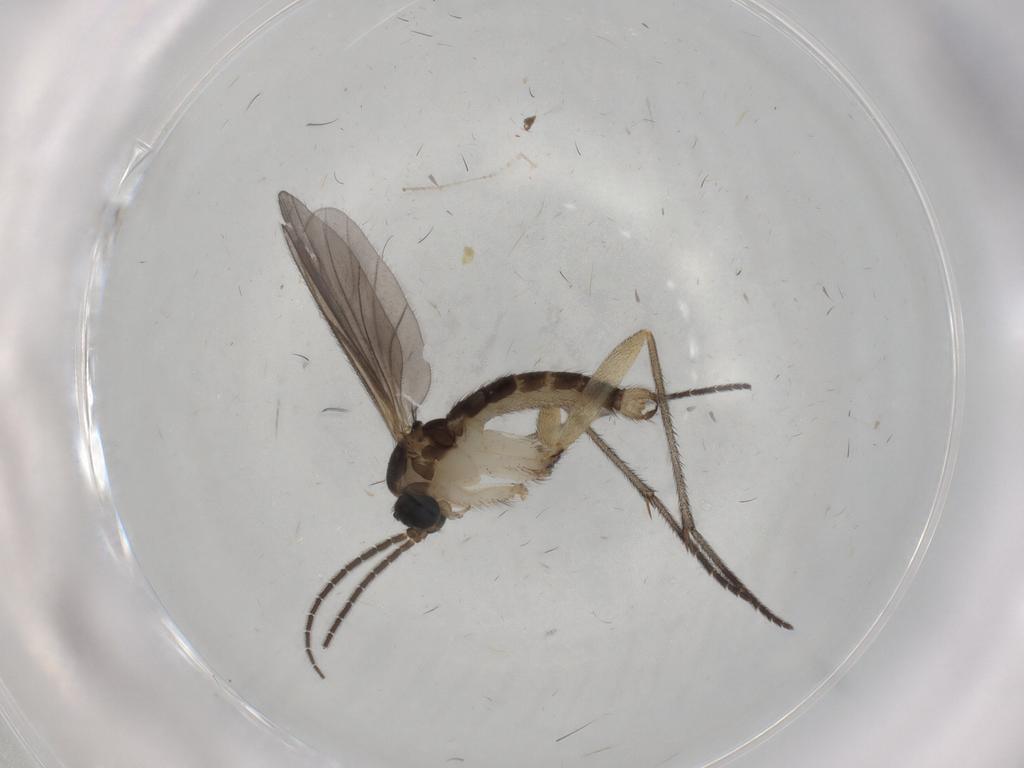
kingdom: Animalia
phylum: Arthropoda
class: Insecta
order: Diptera
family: Sciaridae
